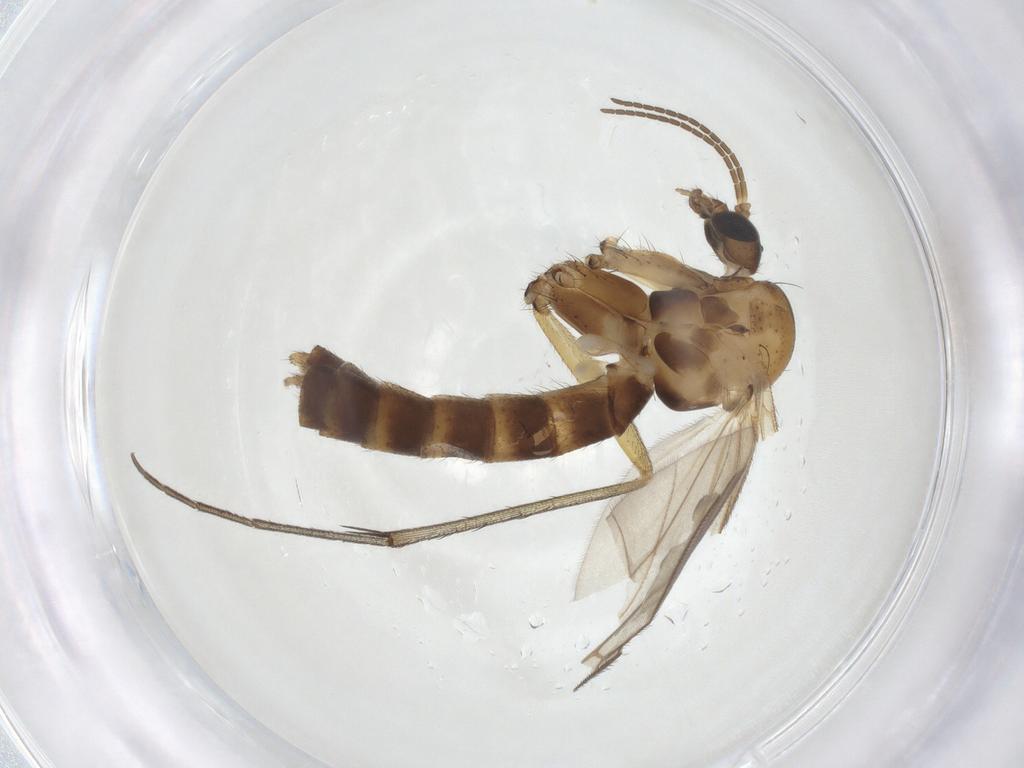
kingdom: Animalia
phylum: Arthropoda
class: Insecta
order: Diptera
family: Mycetophilidae
